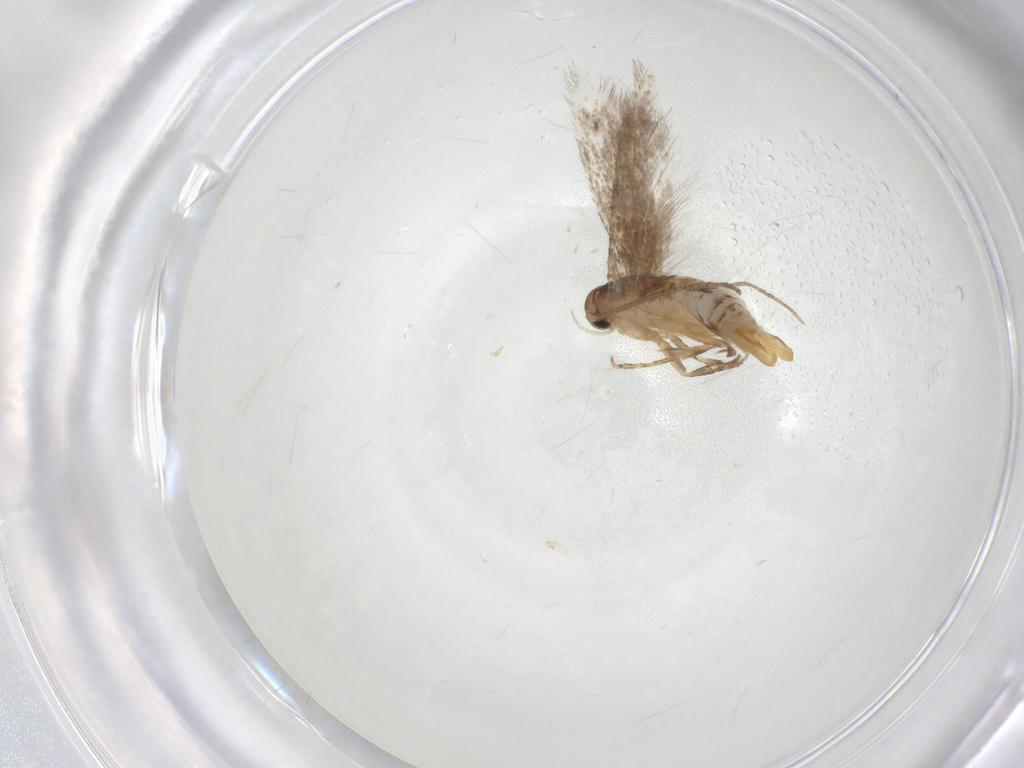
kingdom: Animalia
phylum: Arthropoda
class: Insecta
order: Lepidoptera
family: Elachistidae
